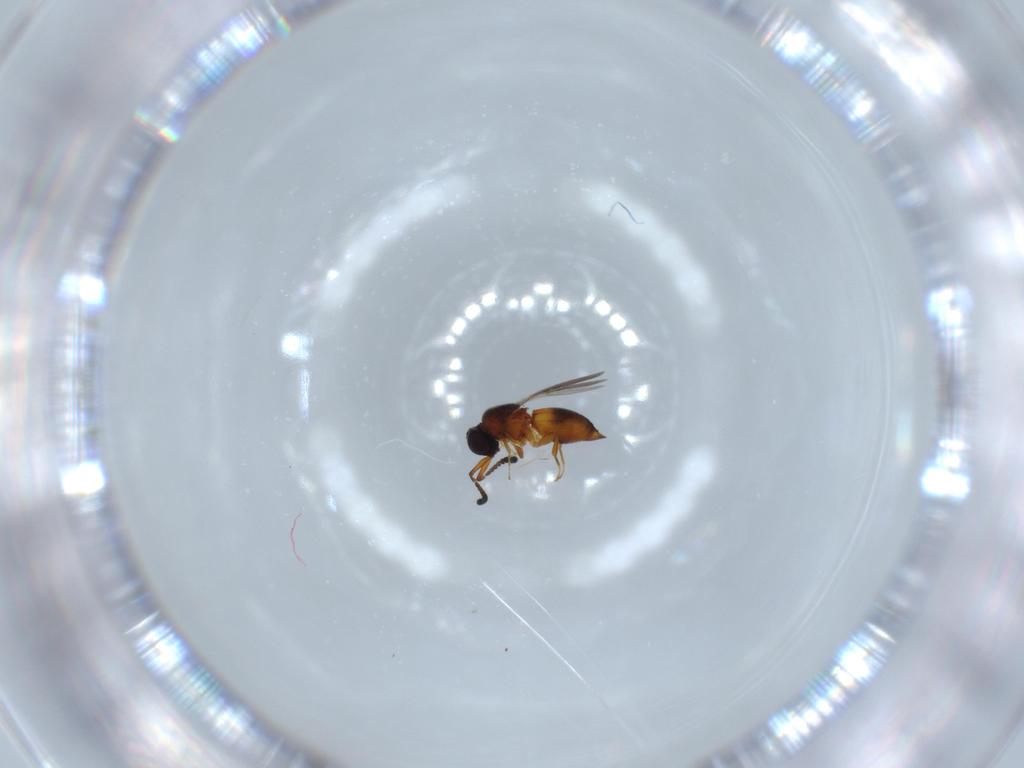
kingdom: Animalia
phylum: Arthropoda
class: Insecta
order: Hymenoptera
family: Ceraphronidae
